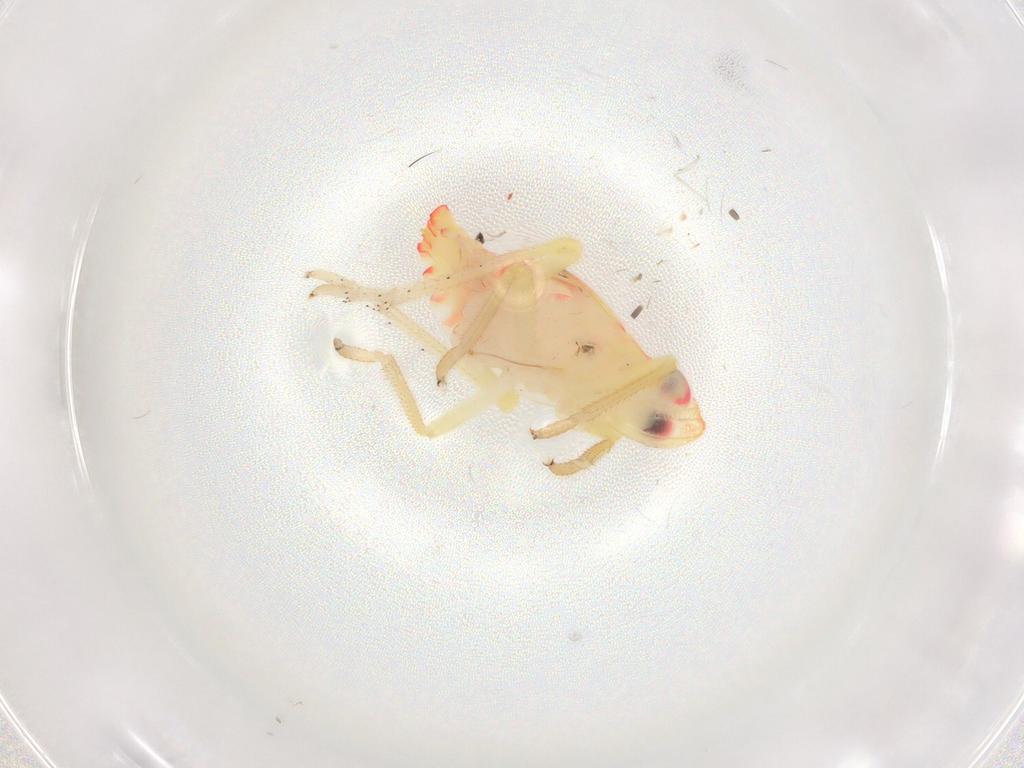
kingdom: Animalia
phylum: Arthropoda
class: Insecta
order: Hemiptera
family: Tropiduchidae
